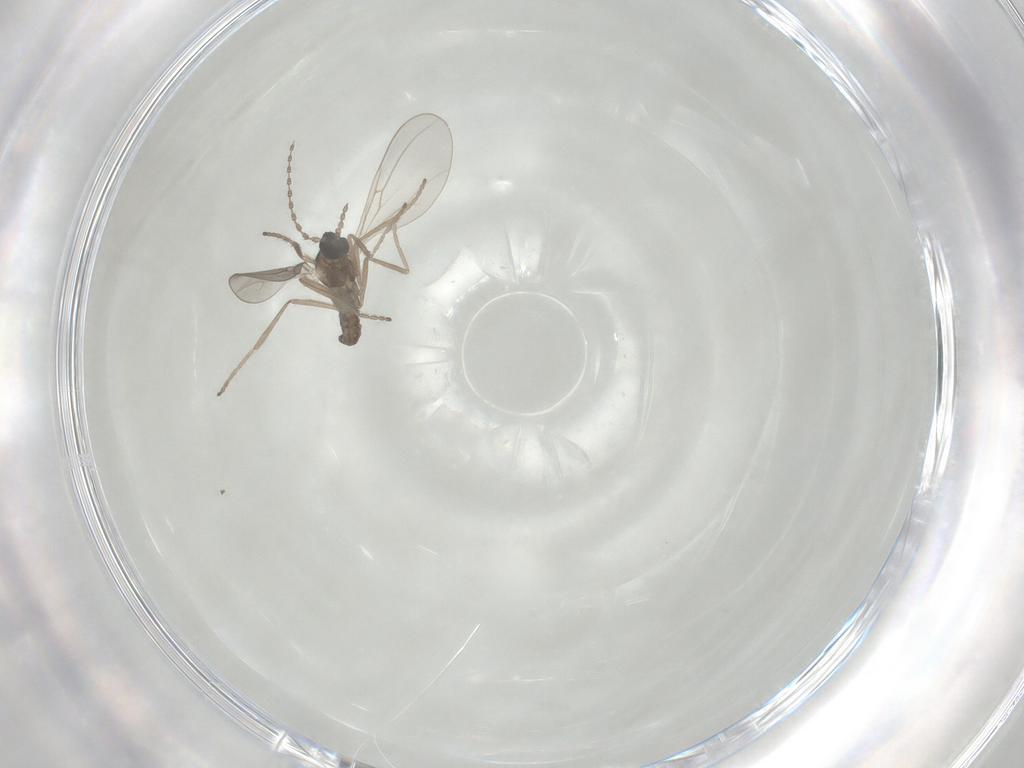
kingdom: Animalia
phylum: Arthropoda
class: Insecta
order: Diptera
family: Cecidomyiidae
